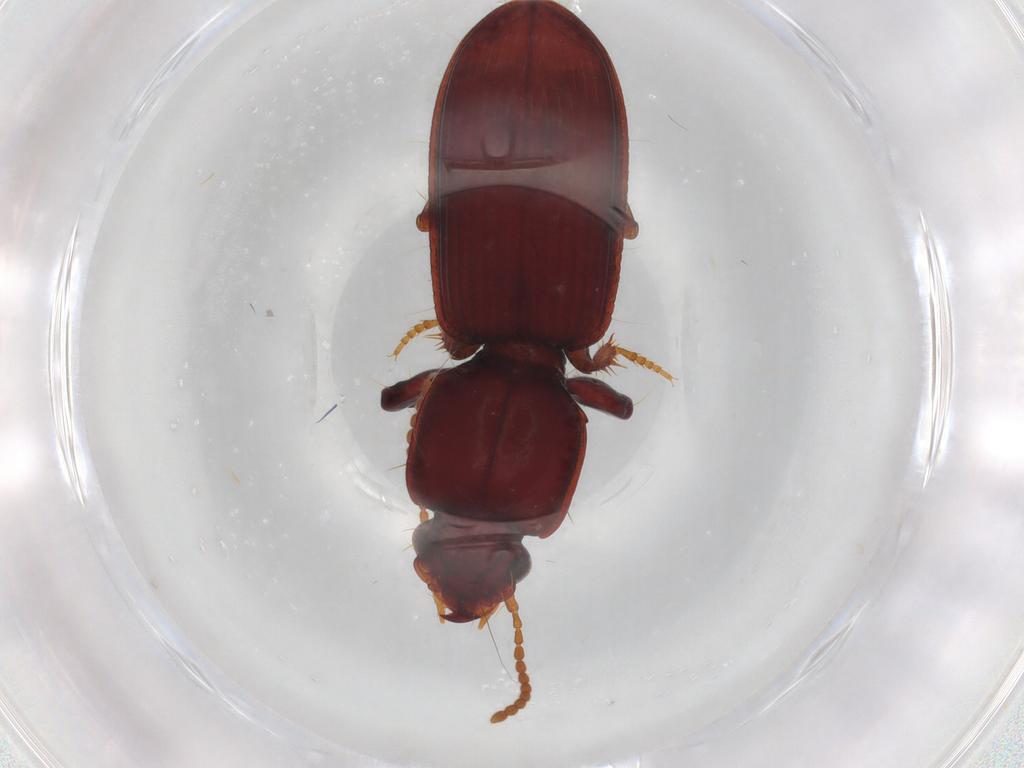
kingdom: Animalia
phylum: Arthropoda
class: Insecta
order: Coleoptera
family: Carabidae
